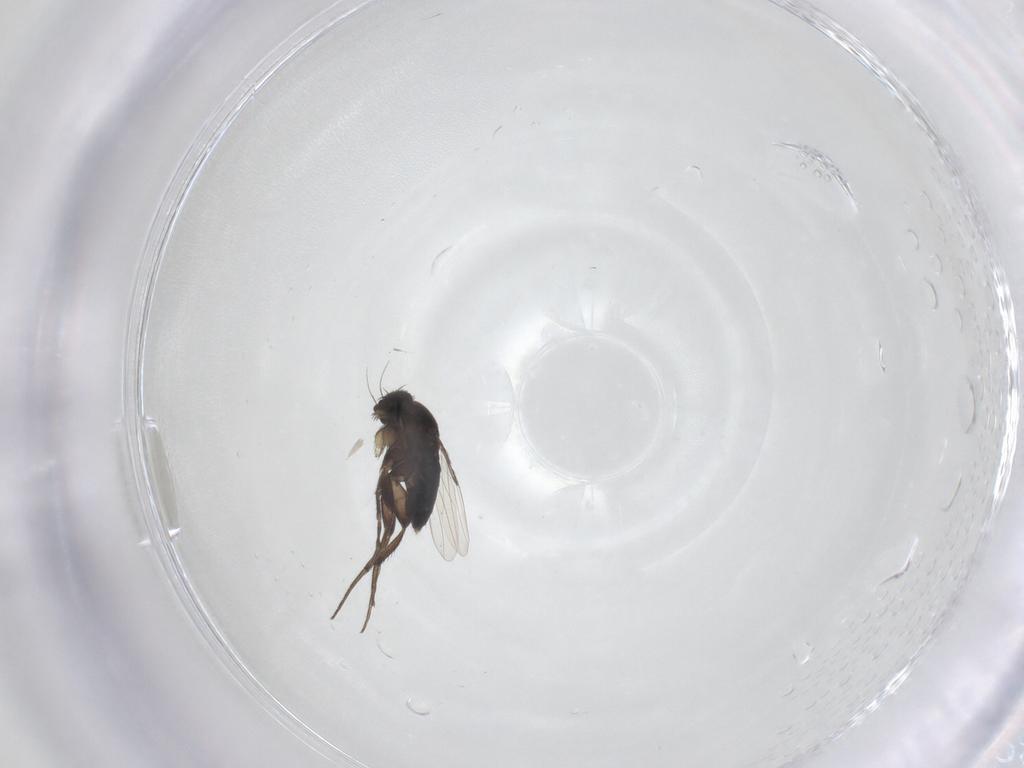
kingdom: Animalia
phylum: Arthropoda
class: Insecta
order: Diptera
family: Phoridae
